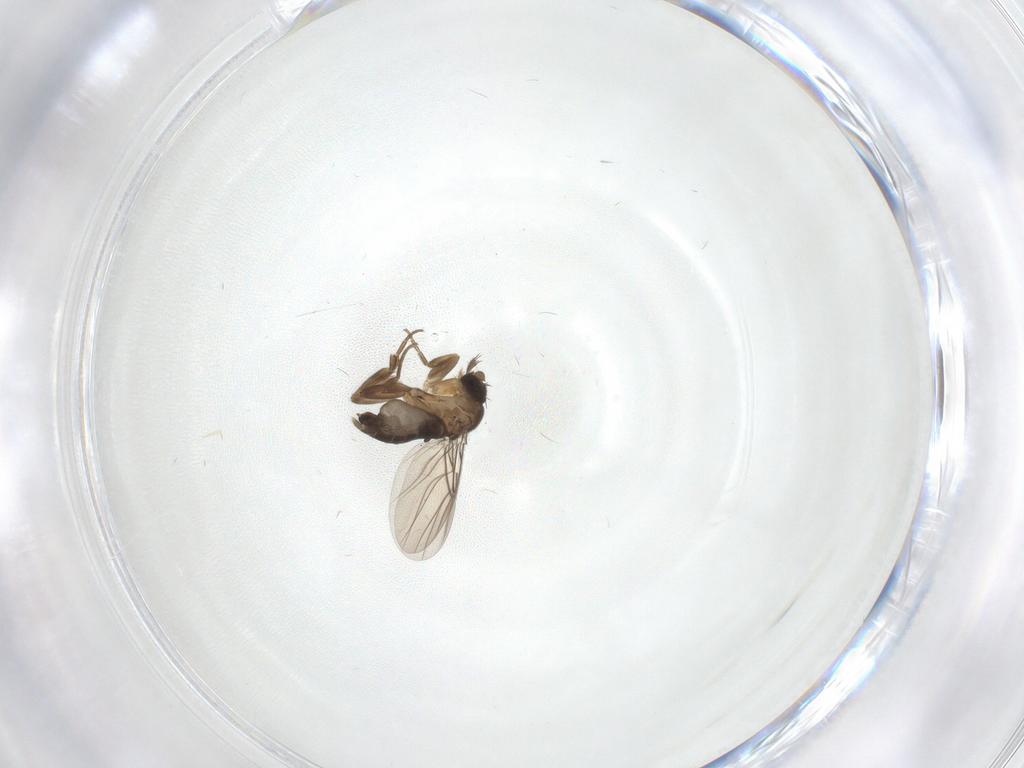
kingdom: Animalia
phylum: Arthropoda
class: Insecta
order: Diptera
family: Phoridae
